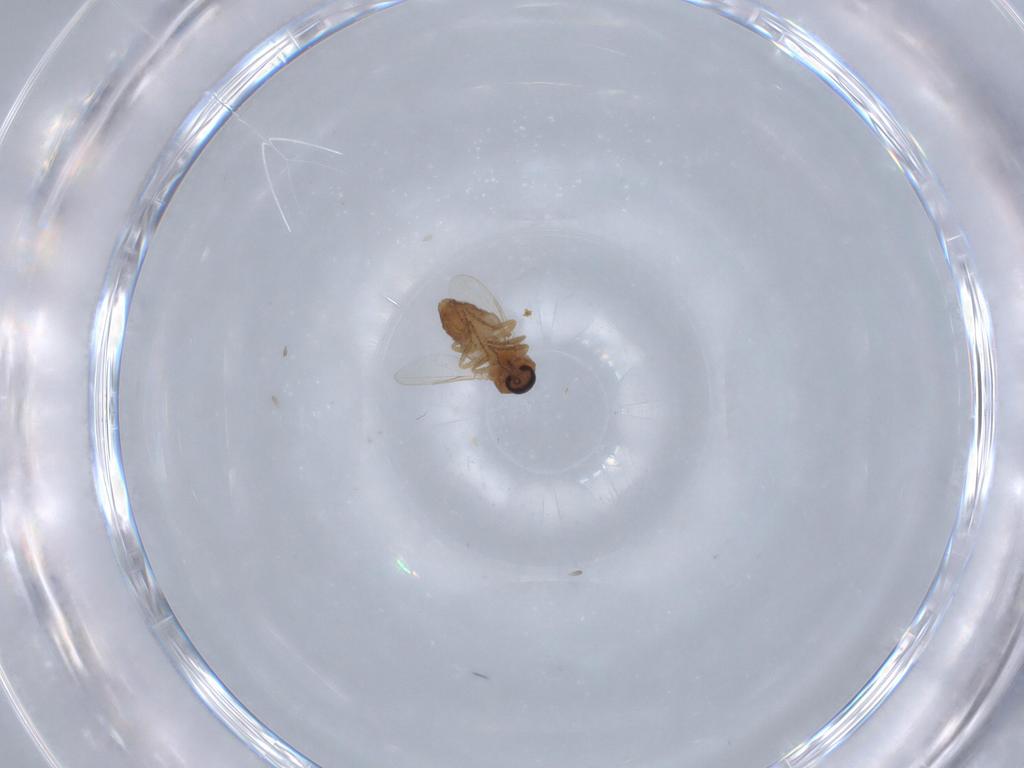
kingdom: Animalia
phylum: Arthropoda
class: Insecta
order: Diptera
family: Ceratopogonidae
